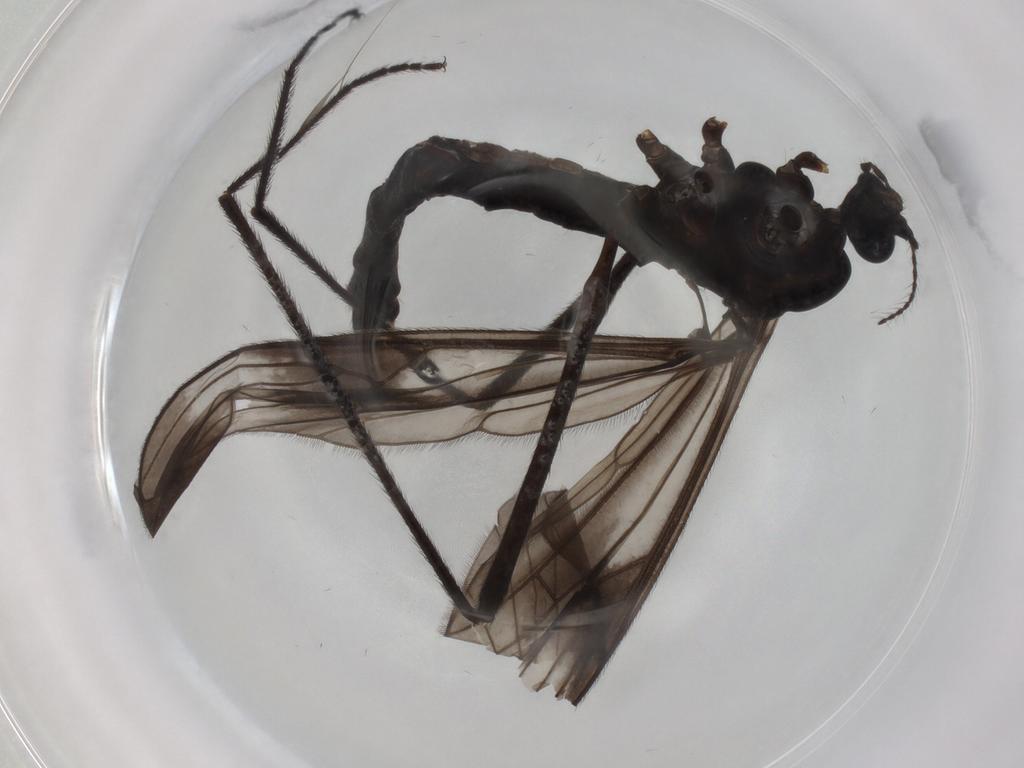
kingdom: Animalia
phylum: Arthropoda
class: Insecta
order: Diptera
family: Limoniidae
